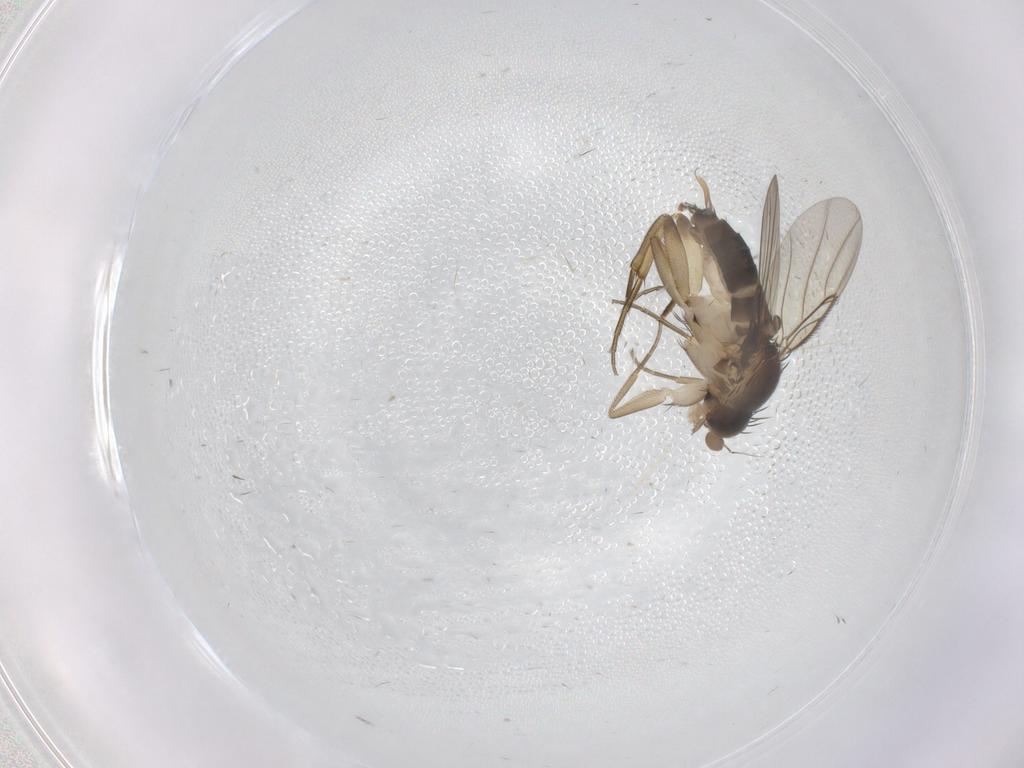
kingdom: Animalia
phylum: Arthropoda
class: Insecta
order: Diptera
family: Phoridae
